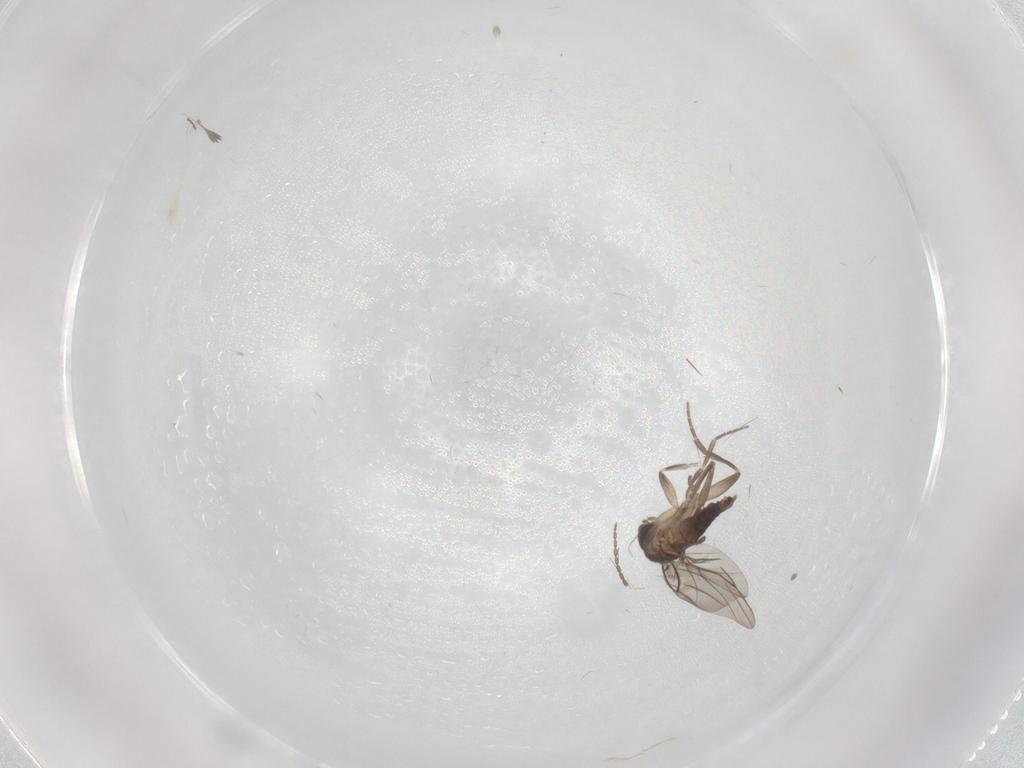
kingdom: Animalia
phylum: Arthropoda
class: Insecta
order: Diptera
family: Cecidomyiidae
